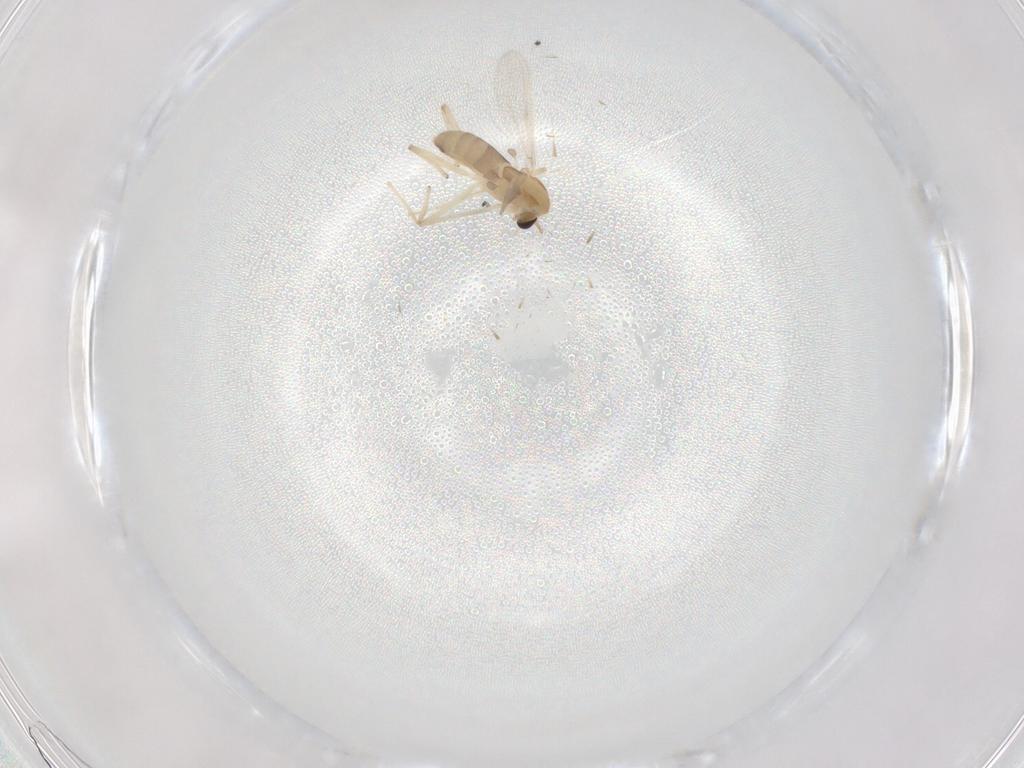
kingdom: Animalia
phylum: Arthropoda
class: Insecta
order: Diptera
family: Chironomidae
